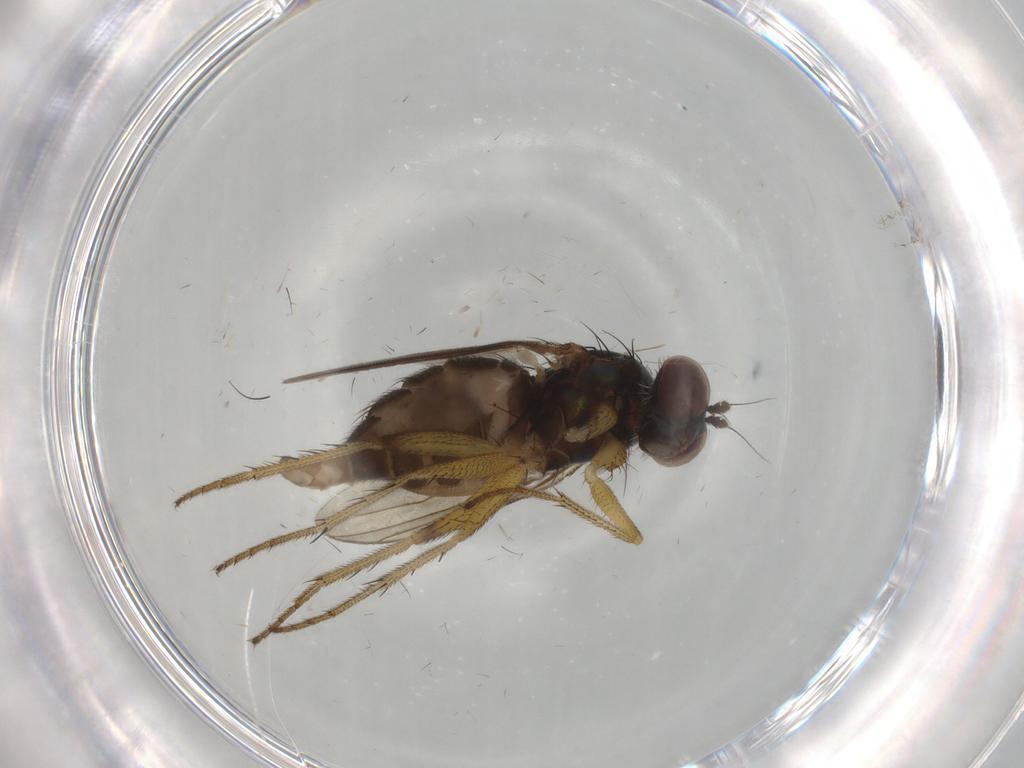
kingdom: Animalia
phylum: Arthropoda
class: Insecta
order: Diptera
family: Dolichopodidae
